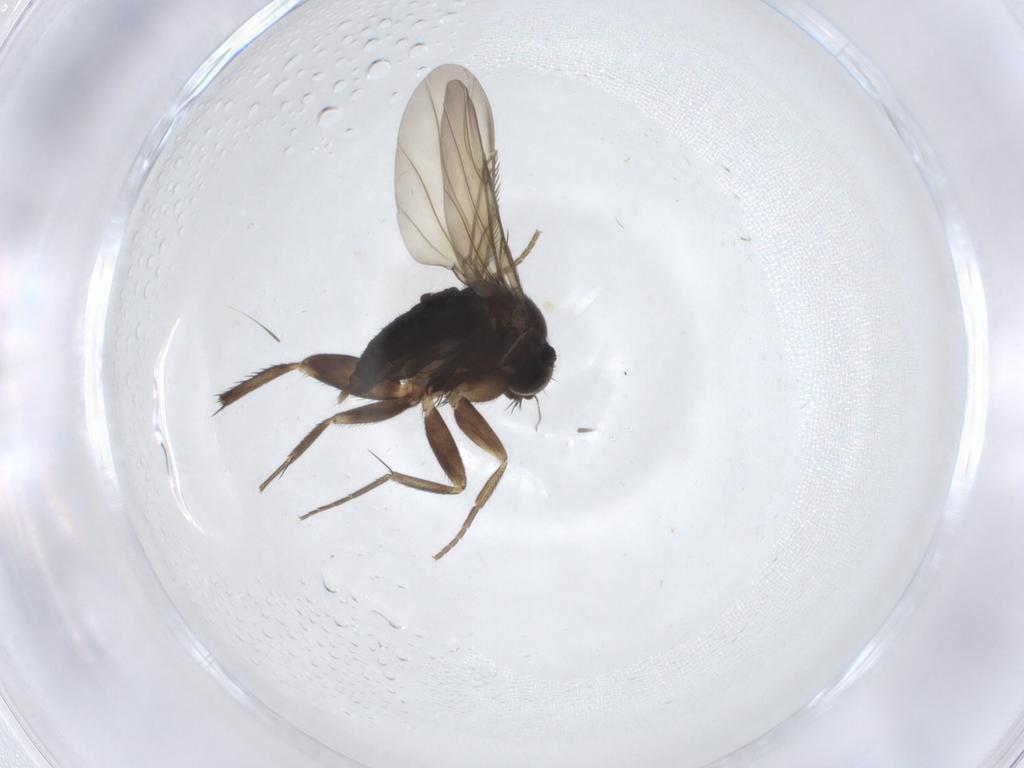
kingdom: Animalia
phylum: Arthropoda
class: Insecta
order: Diptera
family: Phoridae
